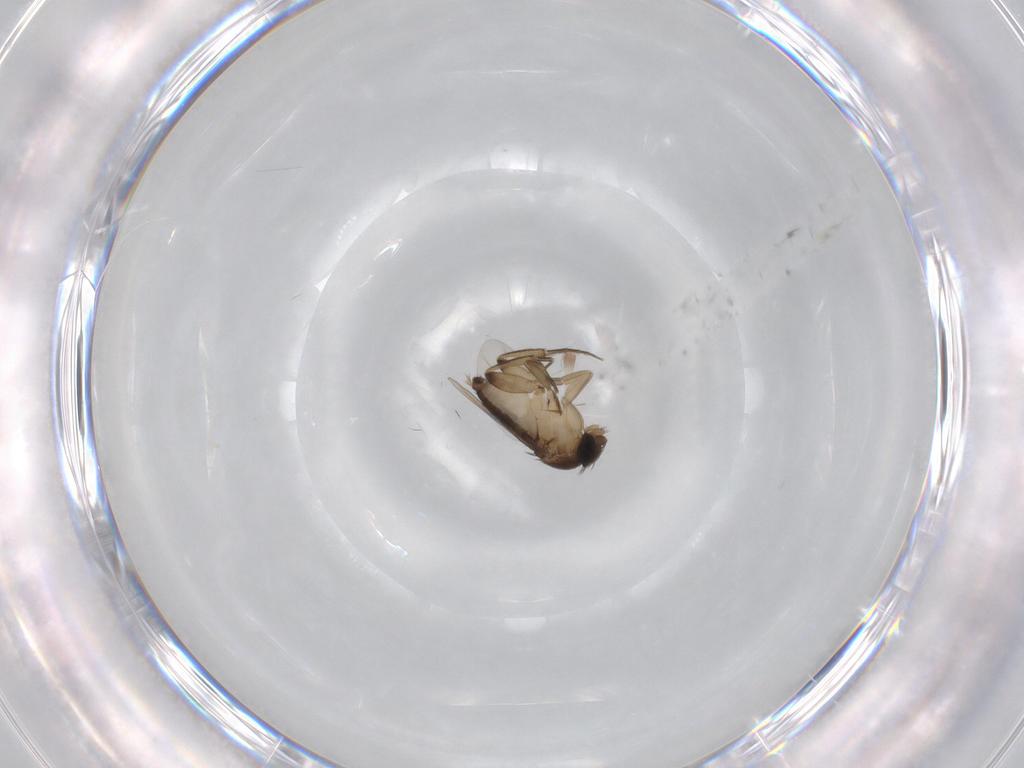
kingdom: Animalia
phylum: Arthropoda
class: Insecta
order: Diptera
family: Phoridae
